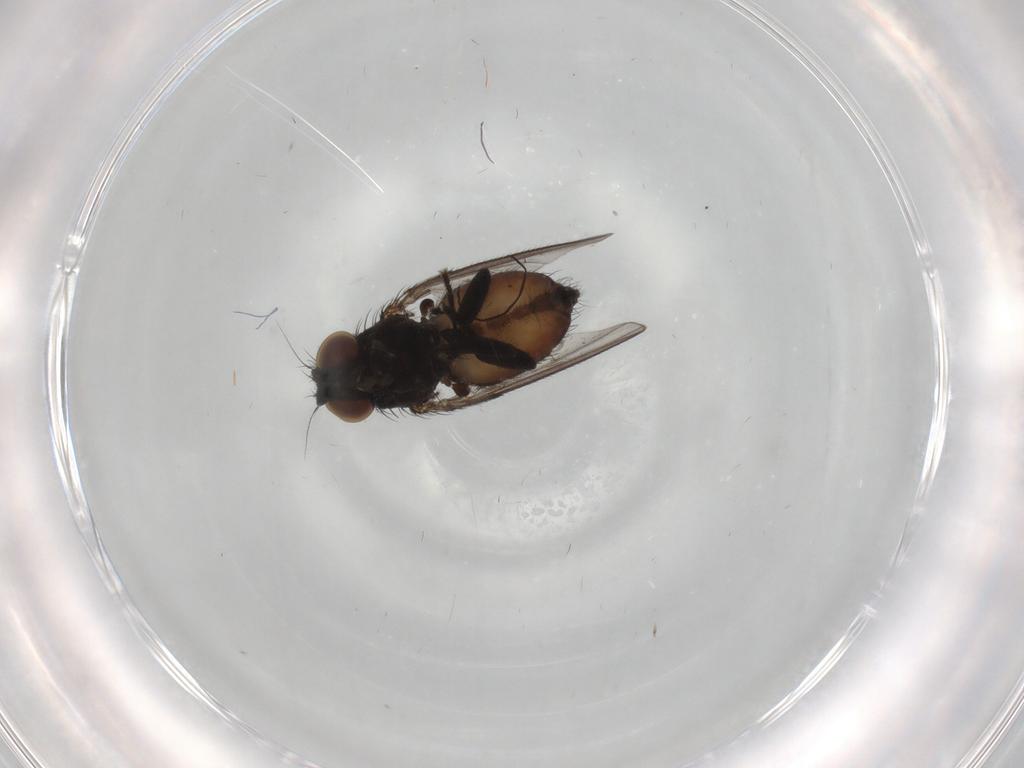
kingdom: Animalia
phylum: Arthropoda
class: Insecta
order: Diptera
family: Milichiidae
